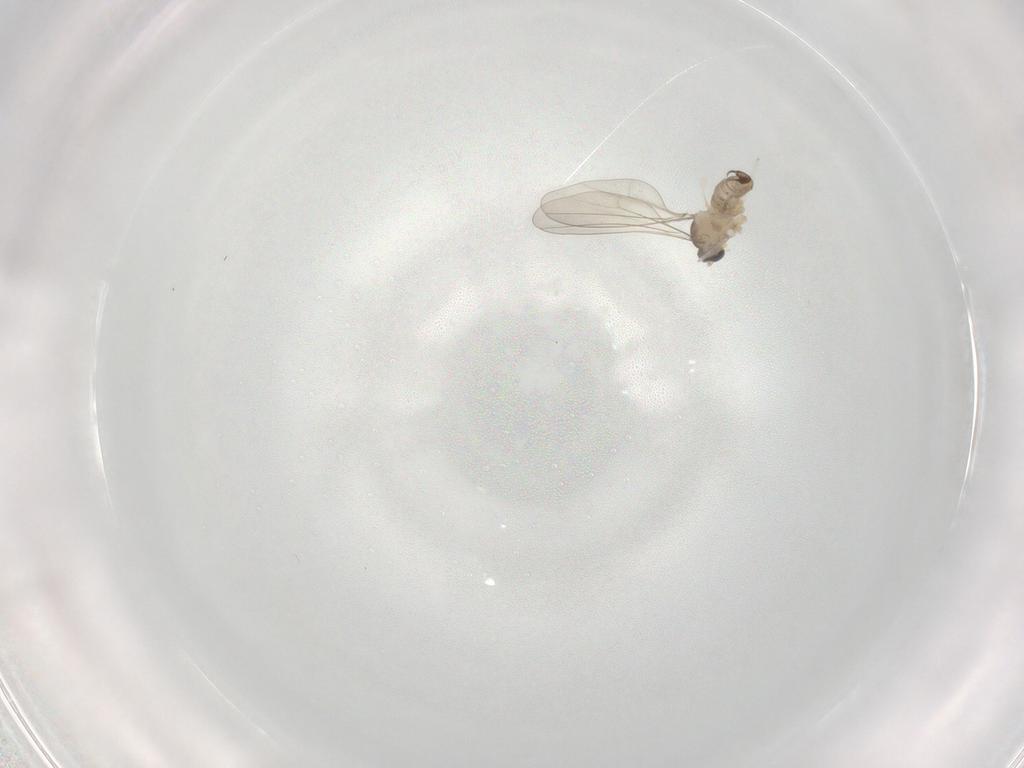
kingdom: Animalia
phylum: Arthropoda
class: Insecta
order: Diptera
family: Cecidomyiidae
